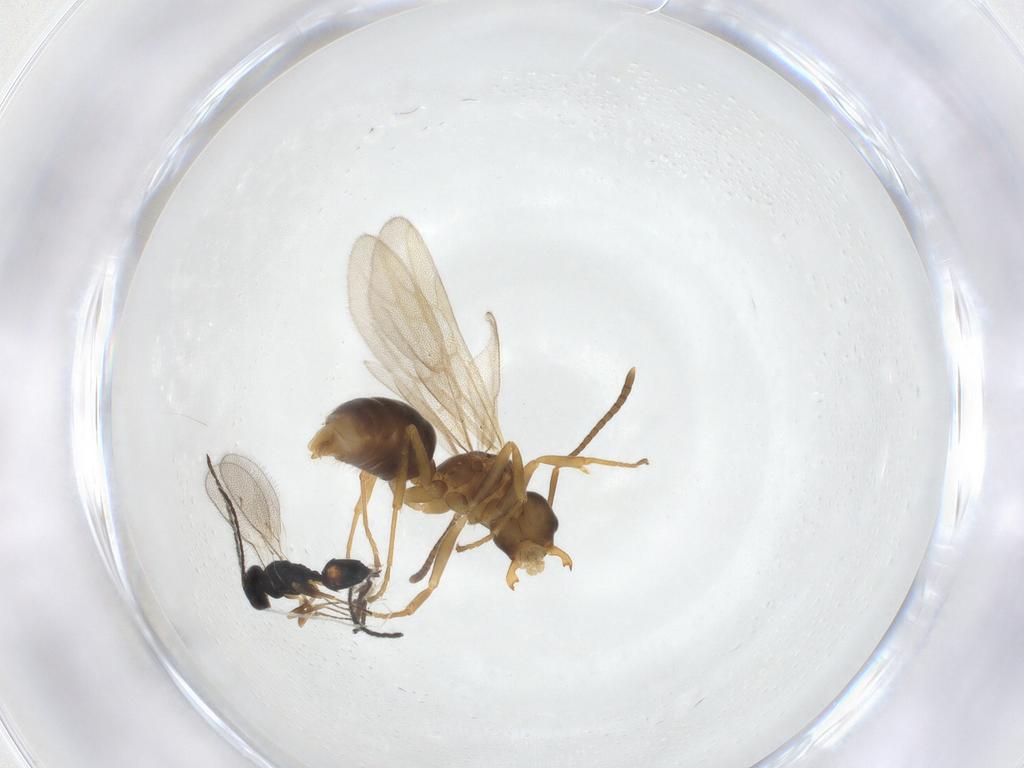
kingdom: Animalia
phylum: Arthropoda
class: Insecta
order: Hymenoptera
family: Pteromalidae
